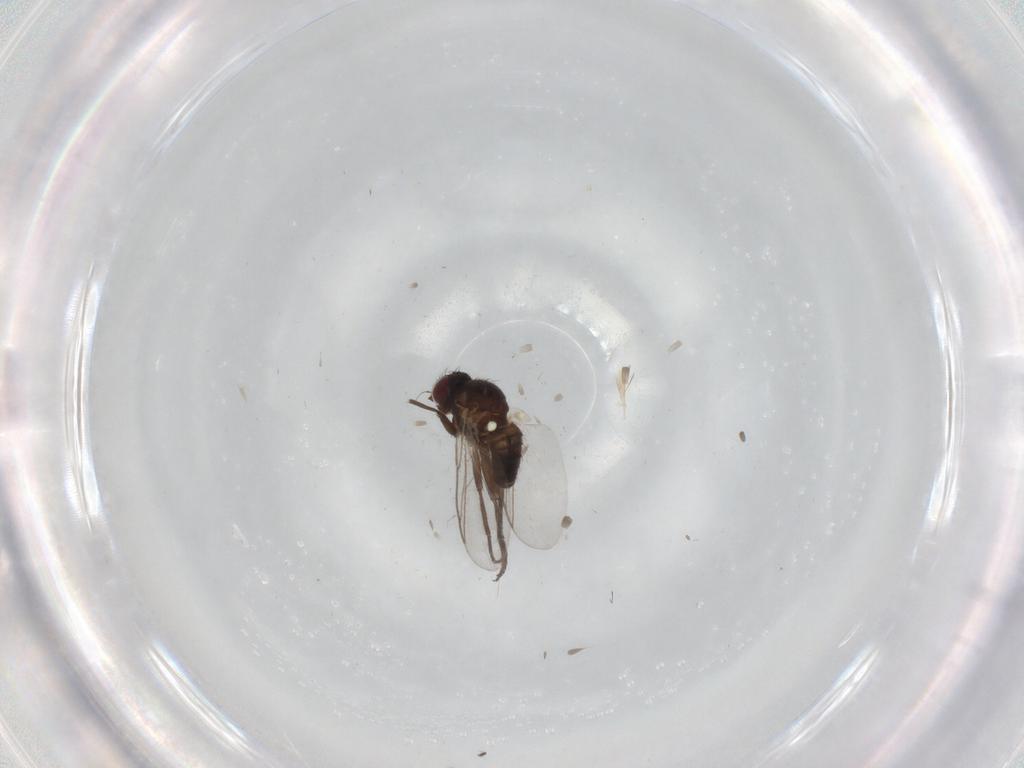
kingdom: Animalia
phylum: Arthropoda
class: Insecta
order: Diptera
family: Agromyzidae
